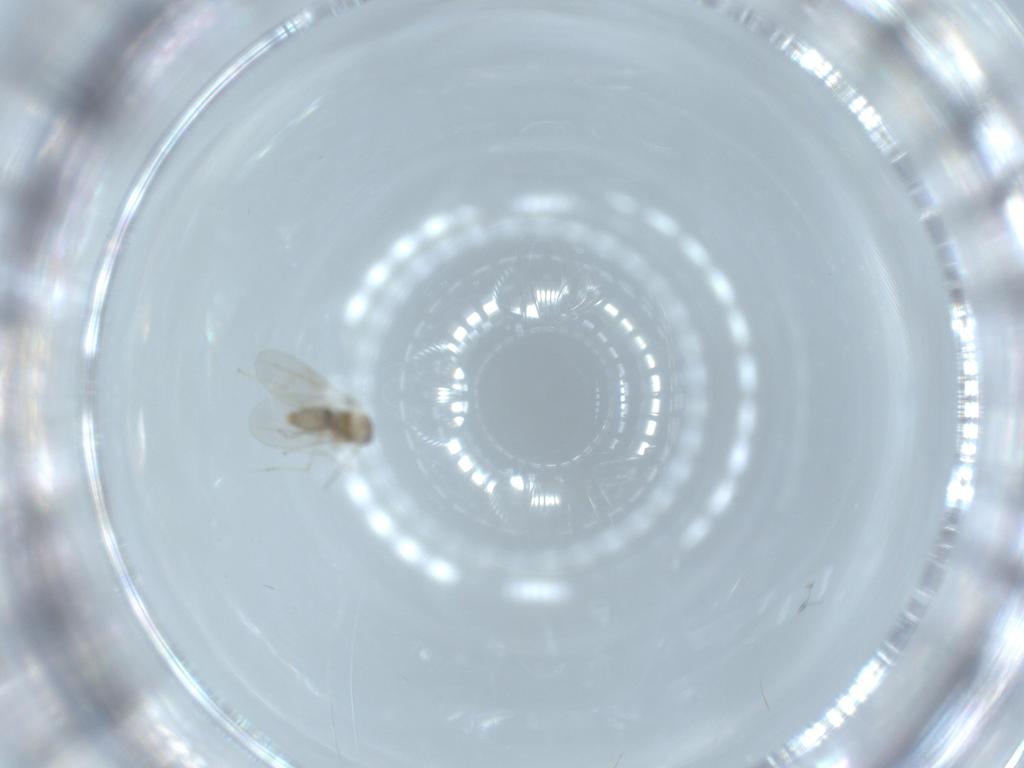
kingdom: Animalia
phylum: Arthropoda
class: Insecta
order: Diptera
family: Cecidomyiidae
